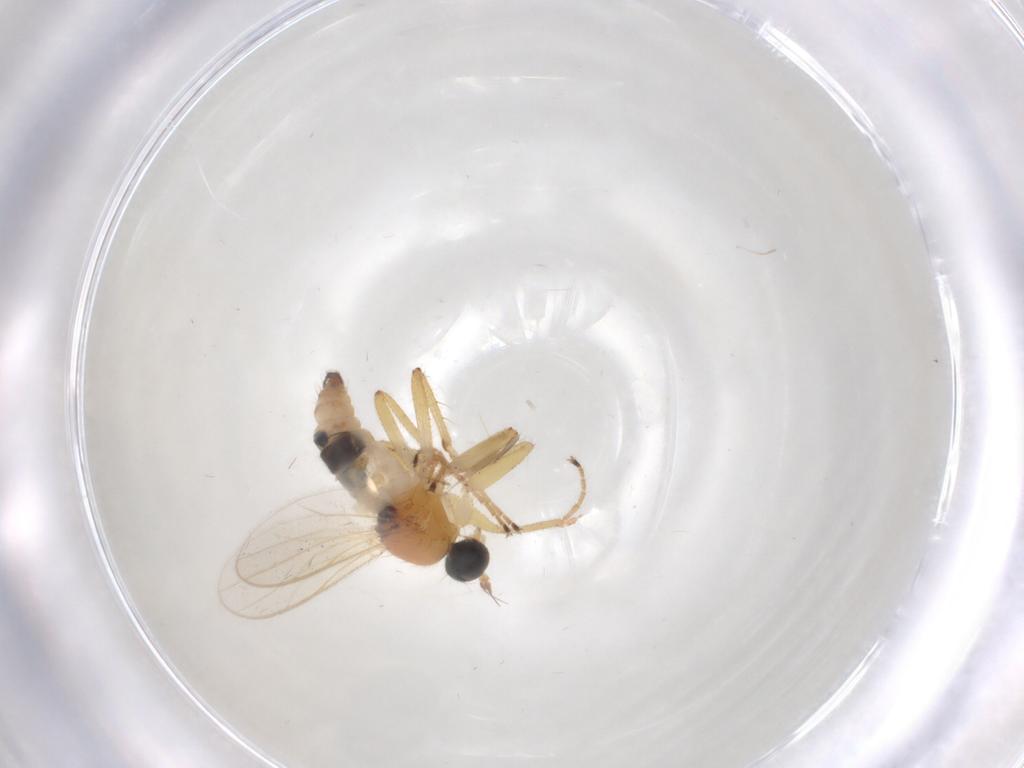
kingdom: Animalia
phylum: Arthropoda
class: Insecta
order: Diptera
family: Hybotidae
